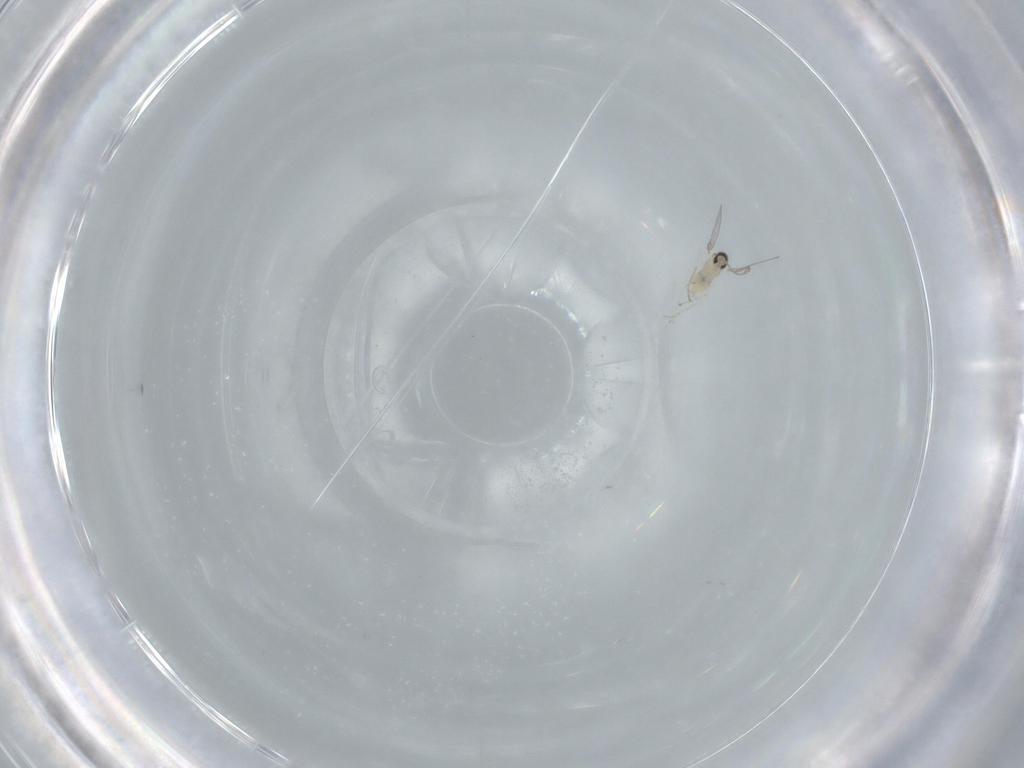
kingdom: Animalia
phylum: Arthropoda
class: Insecta
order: Diptera
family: Cecidomyiidae
